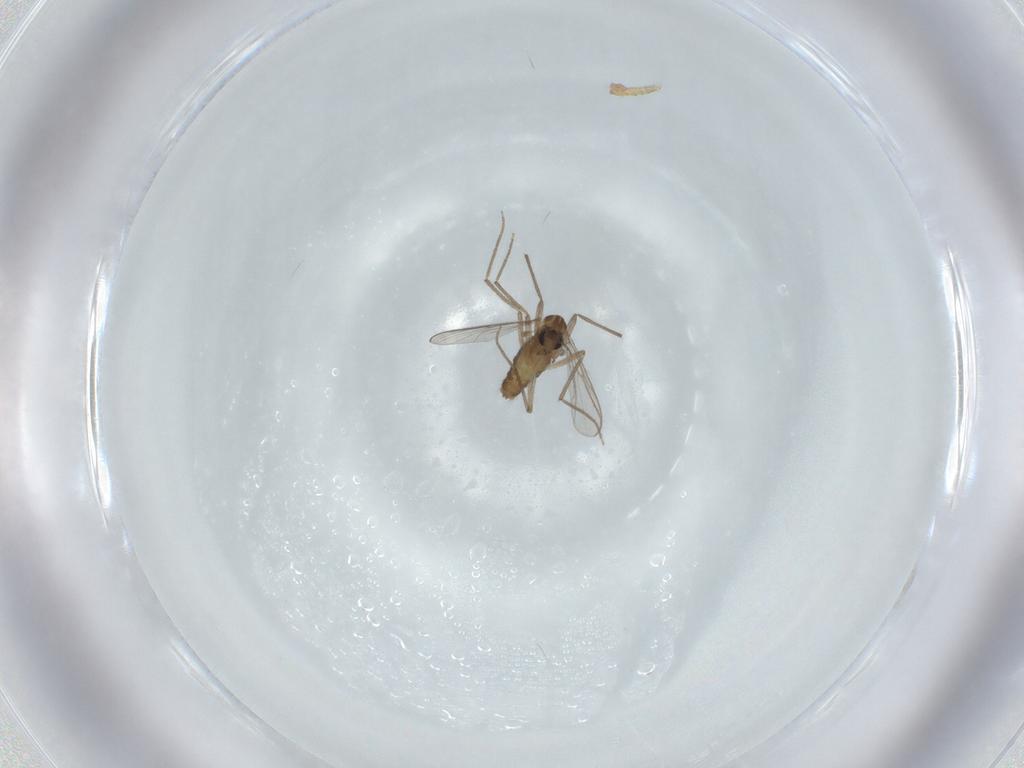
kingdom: Animalia
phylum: Arthropoda
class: Insecta
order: Diptera
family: Chironomidae
